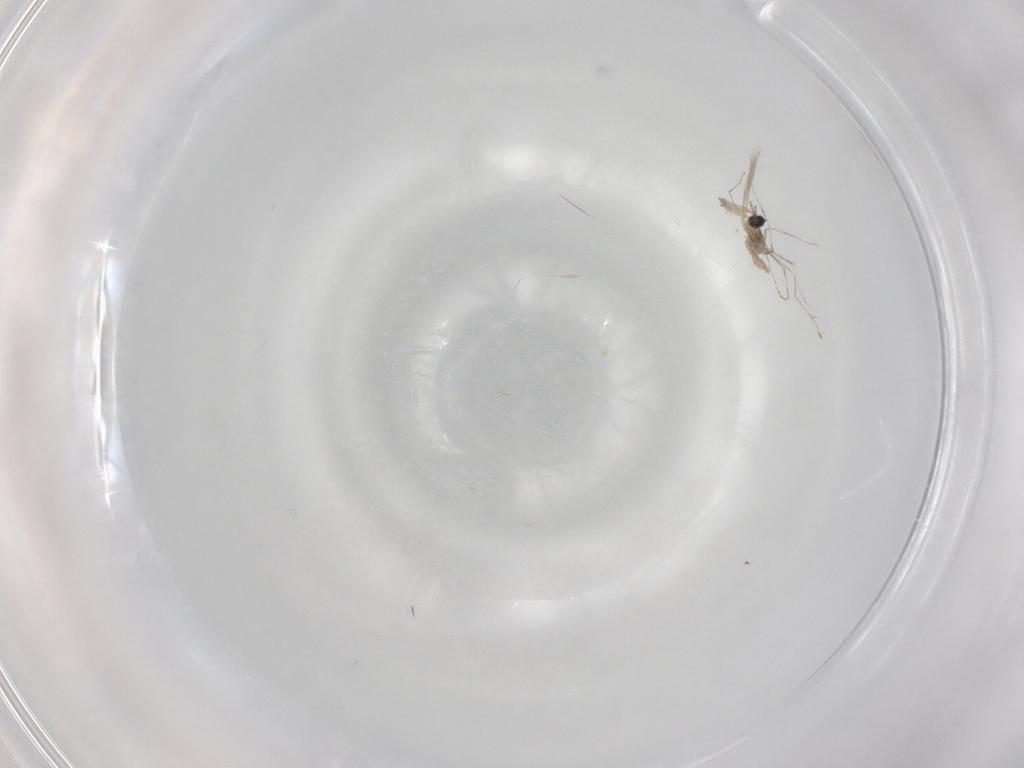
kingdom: Animalia
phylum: Arthropoda
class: Insecta
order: Diptera
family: Cecidomyiidae
